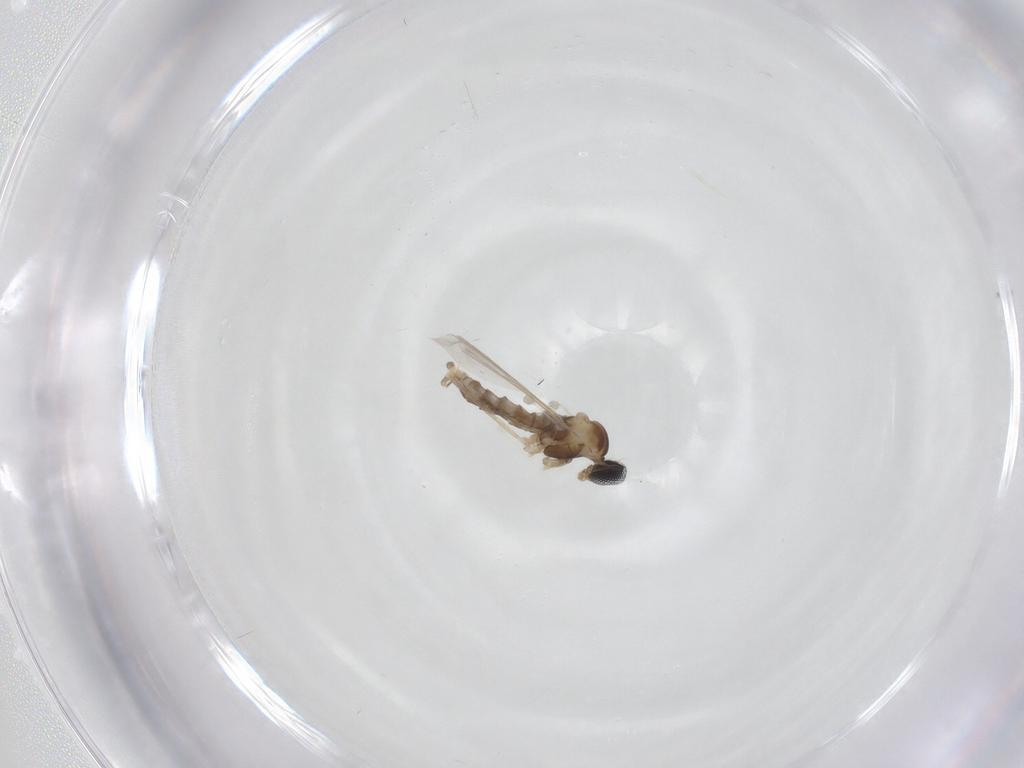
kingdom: Animalia
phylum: Arthropoda
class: Insecta
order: Diptera
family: Cecidomyiidae
